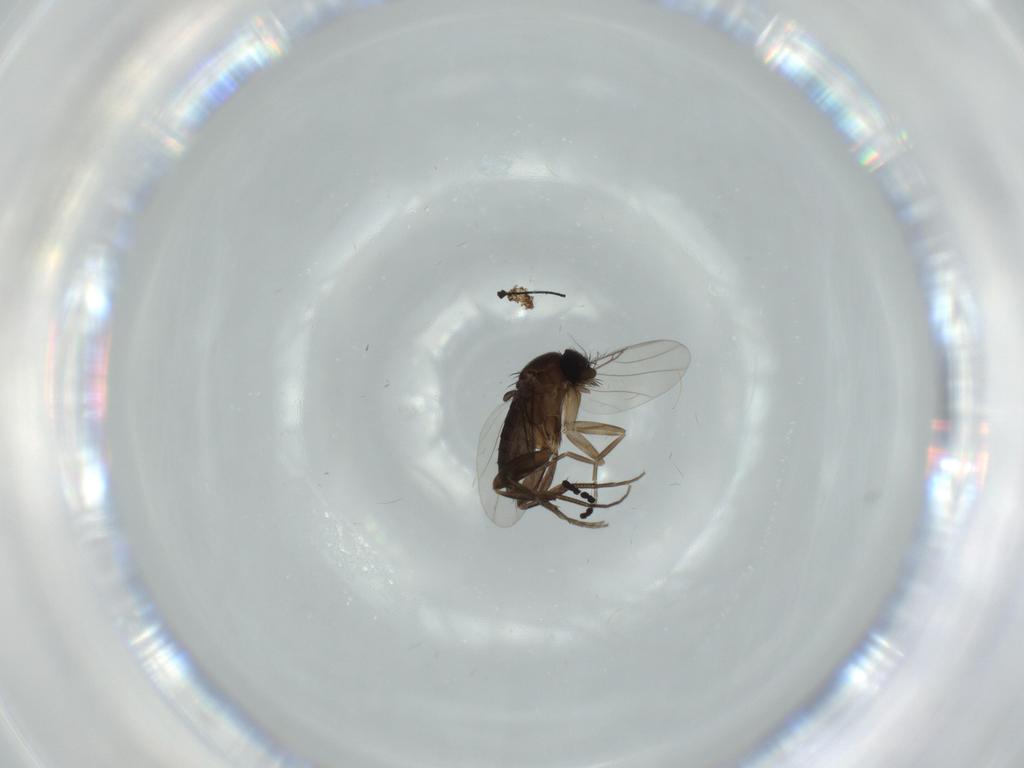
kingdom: Animalia
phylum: Arthropoda
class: Insecta
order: Diptera
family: Phoridae
